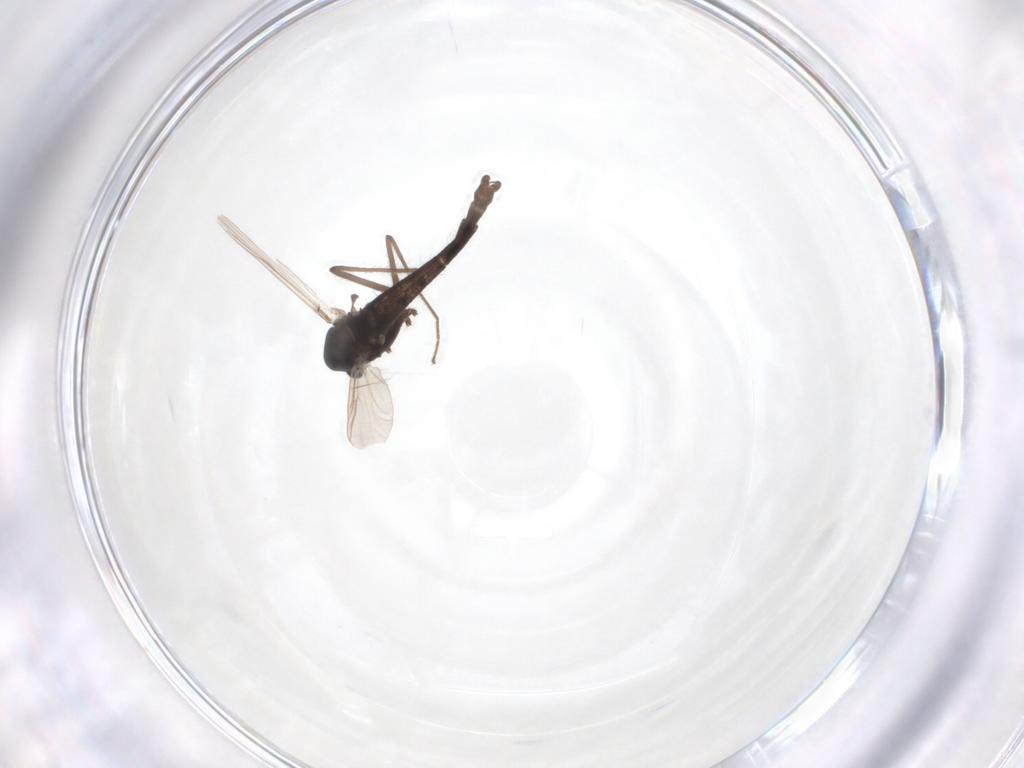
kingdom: Animalia
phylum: Arthropoda
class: Insecta
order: Diptera
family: Chironomidae
